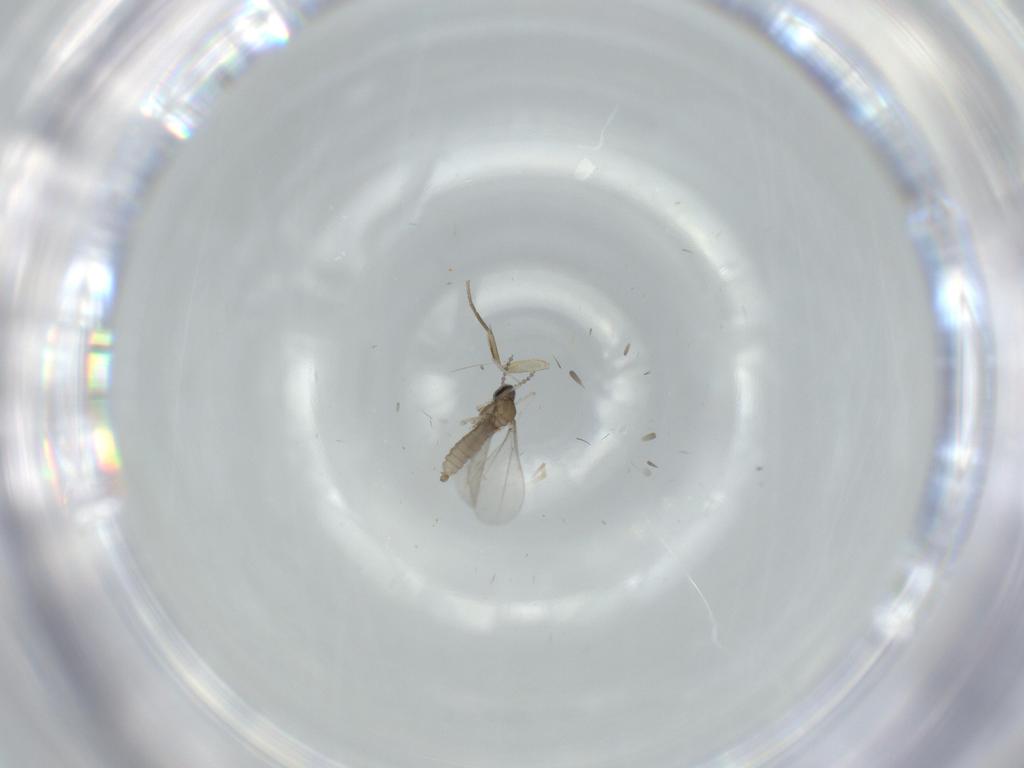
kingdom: Animalia
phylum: Arthropoda
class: Insecta
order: Diptera
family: Cecidomyiidae
